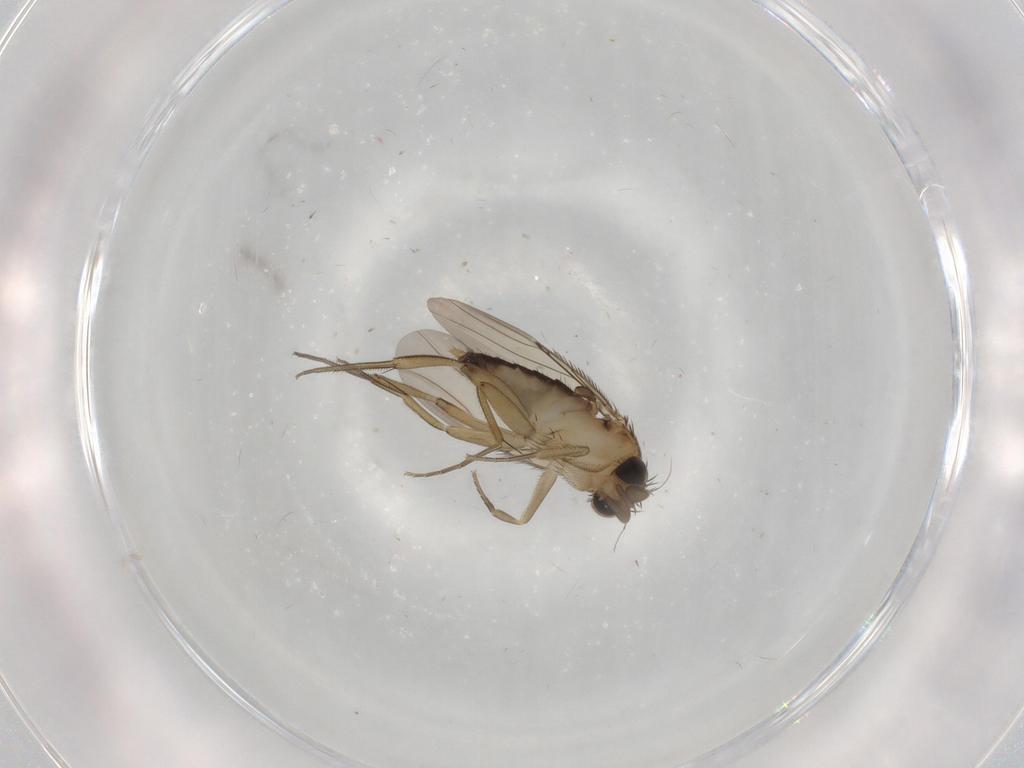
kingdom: Animalia
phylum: Arthropoda
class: Insecta
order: Diptera
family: Phoridae
